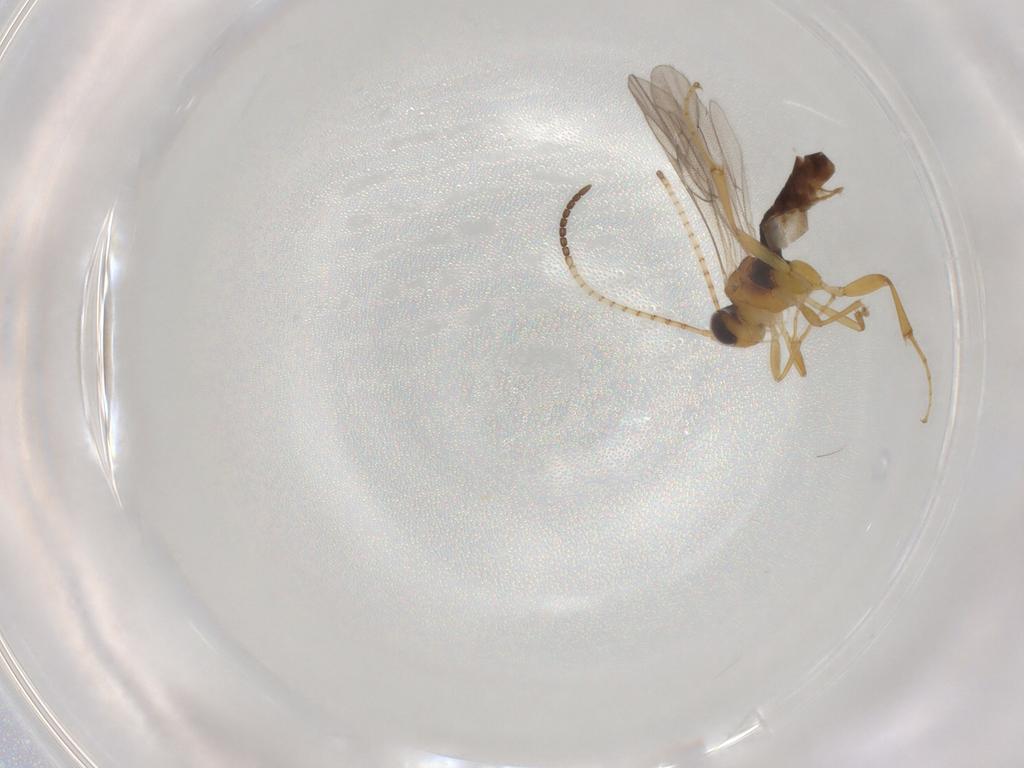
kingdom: Animalia
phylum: Arthropoda
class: Insecta
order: Hymenoptera
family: Ichneumonidae
